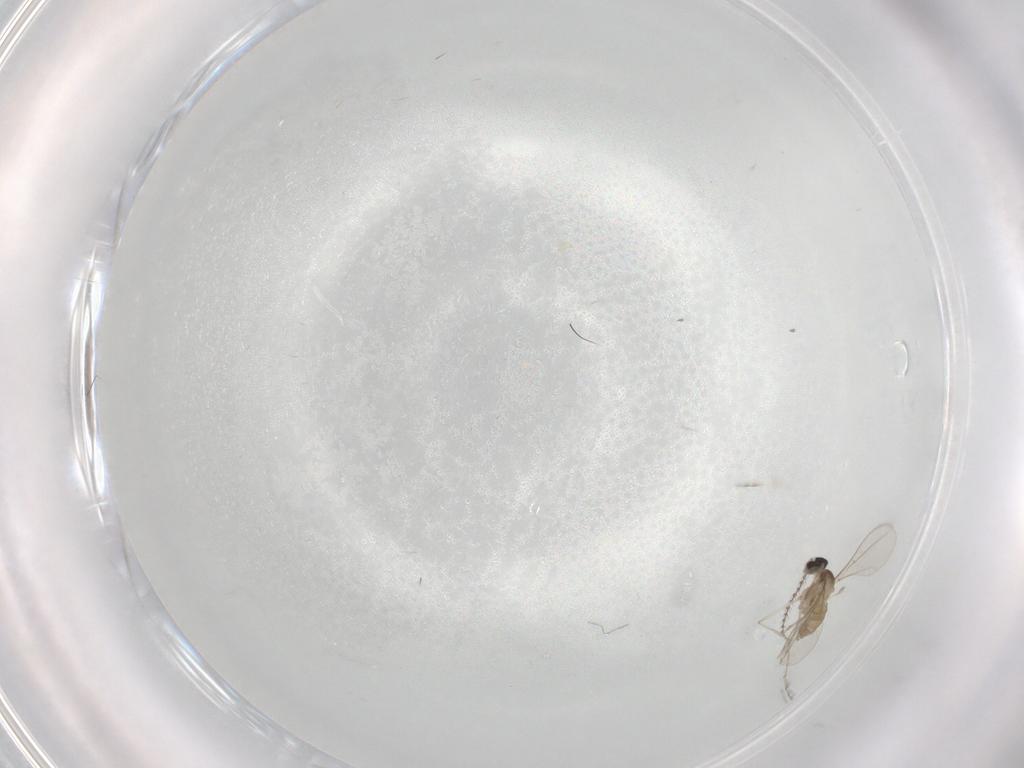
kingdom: Animalia
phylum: Arthropoda
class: Insecta
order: Diptera
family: Cecidomyiidae
